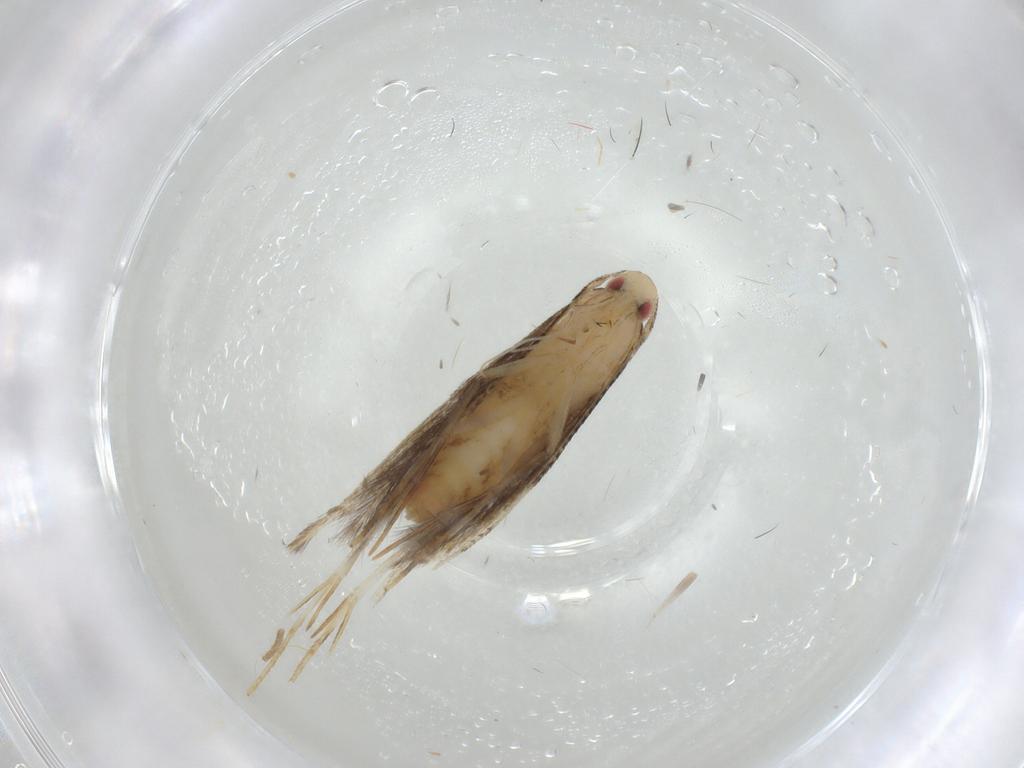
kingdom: Animalia
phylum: Arthropoda
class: Insecta
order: Lepidoptera
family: Gelechiidae
